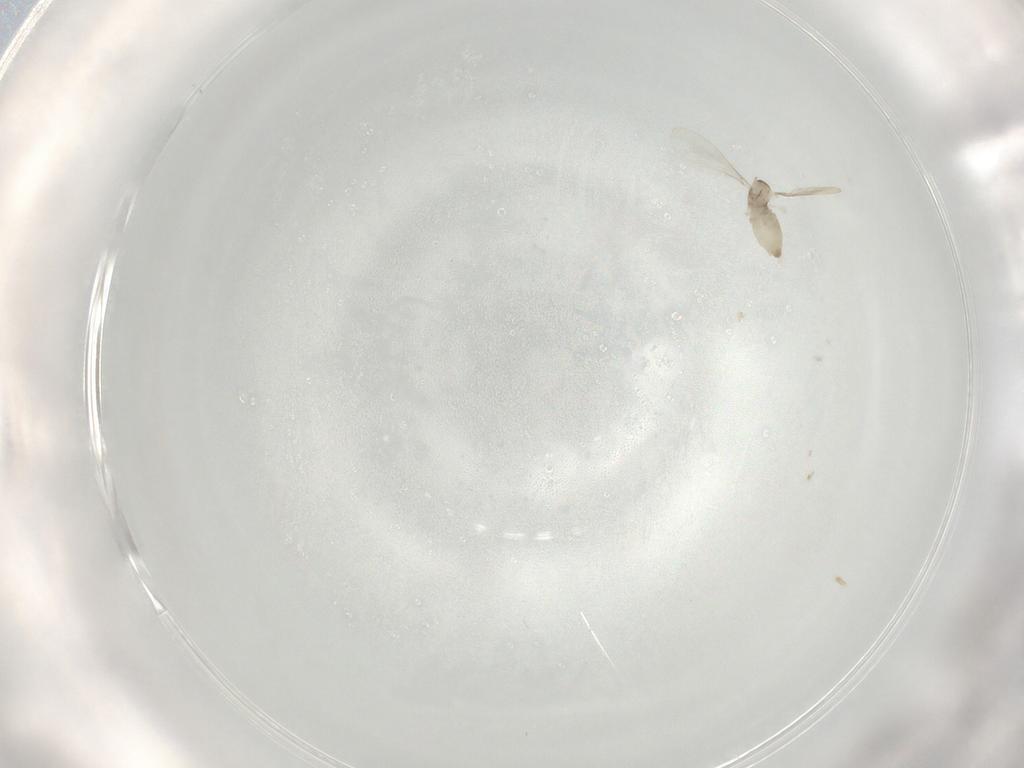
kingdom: Animalia
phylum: Arthropoda
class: Insecta
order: Diptera
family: Cecidomyiidae
